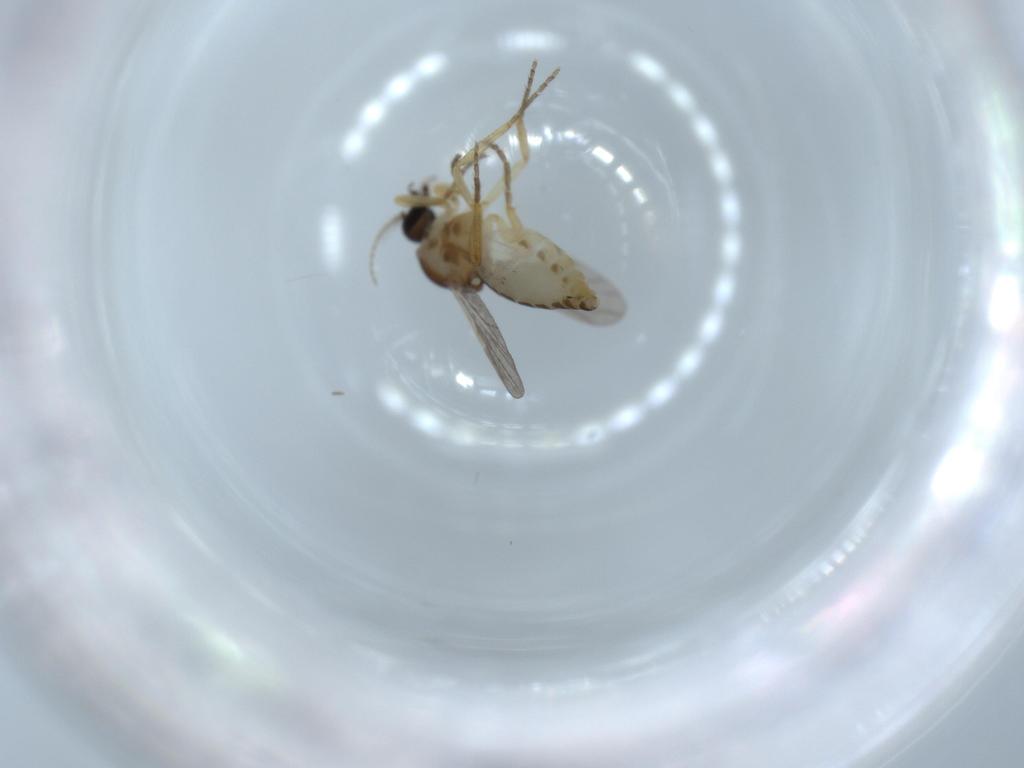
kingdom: Animalia
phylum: Arthropoda
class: Insecta
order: Diptera
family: Ceratopogonidae
